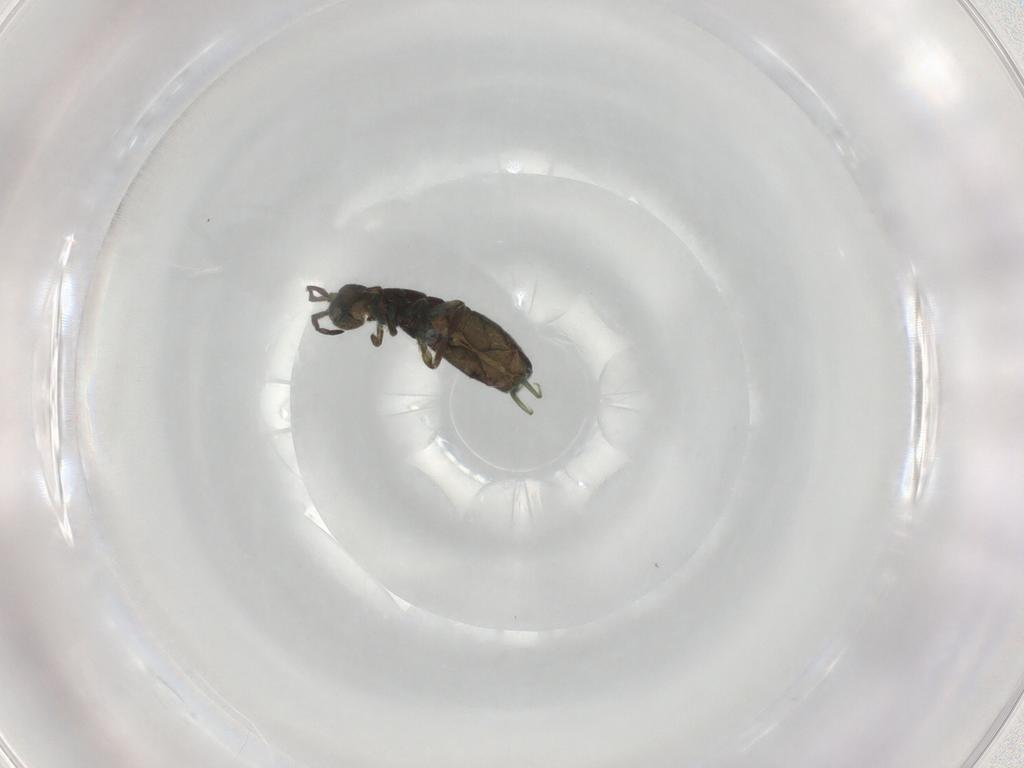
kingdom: Animalia
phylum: Arthropoda
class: Collembola
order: Entomobryomorpha
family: Isotomidae
